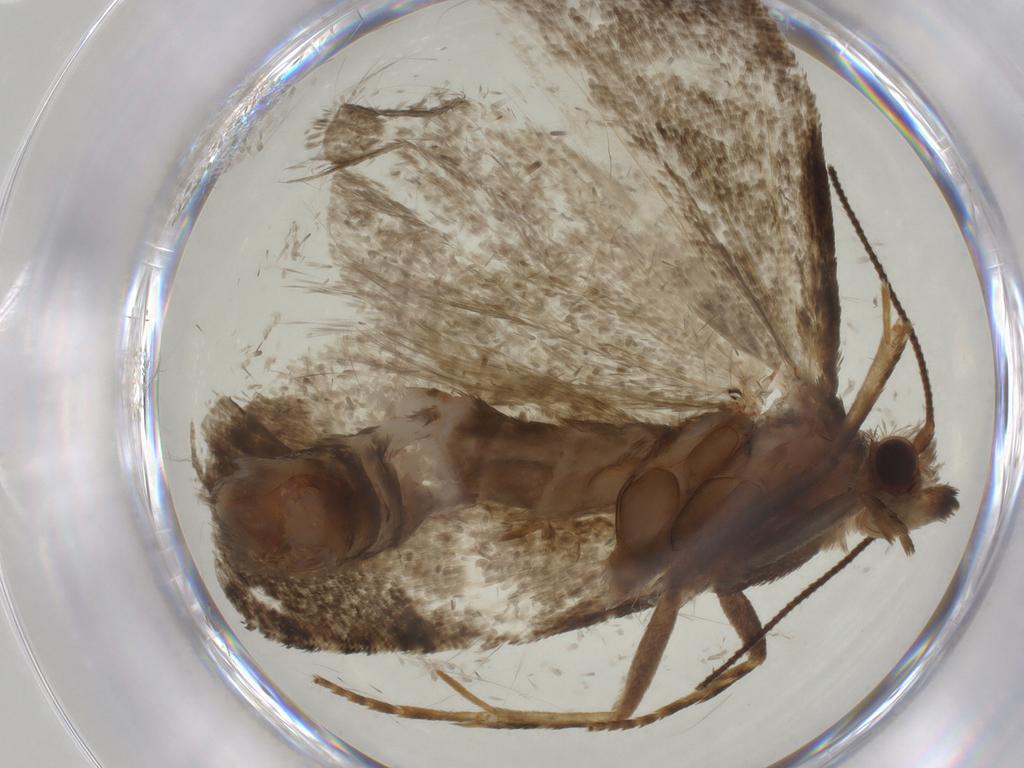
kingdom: Animalia
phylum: Arthropoda
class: Insecta
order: Lepidoptera
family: Tortricidae
